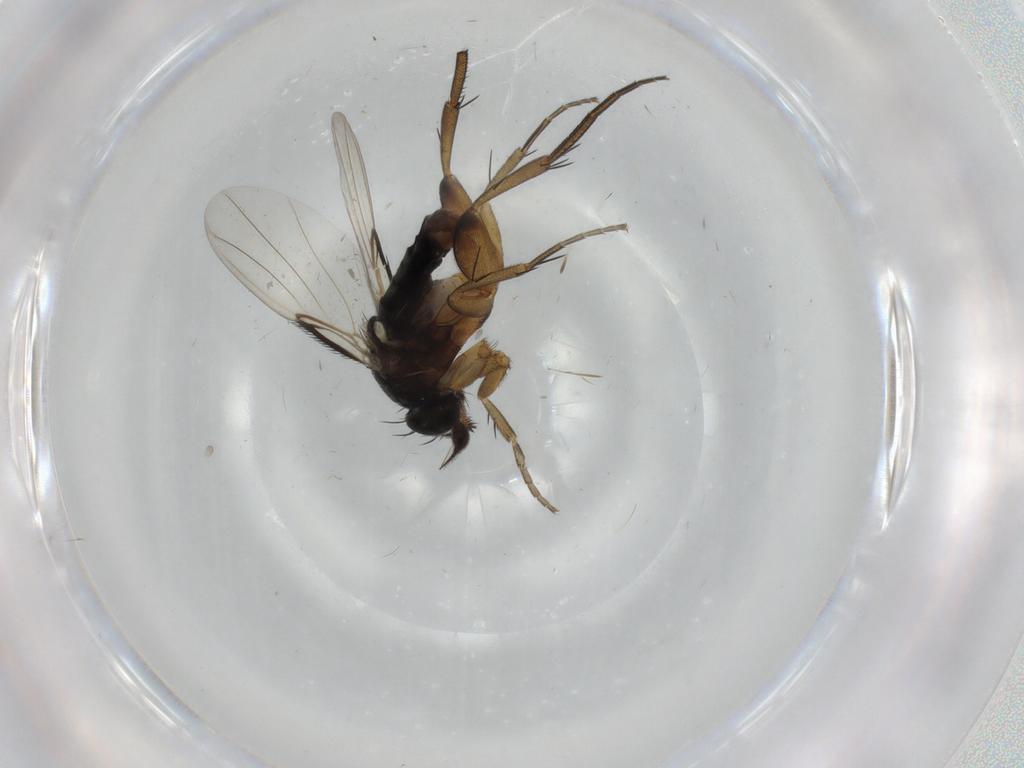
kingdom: Animalia
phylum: Arthropoda
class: Insecta
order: Diptera
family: Phoridae
